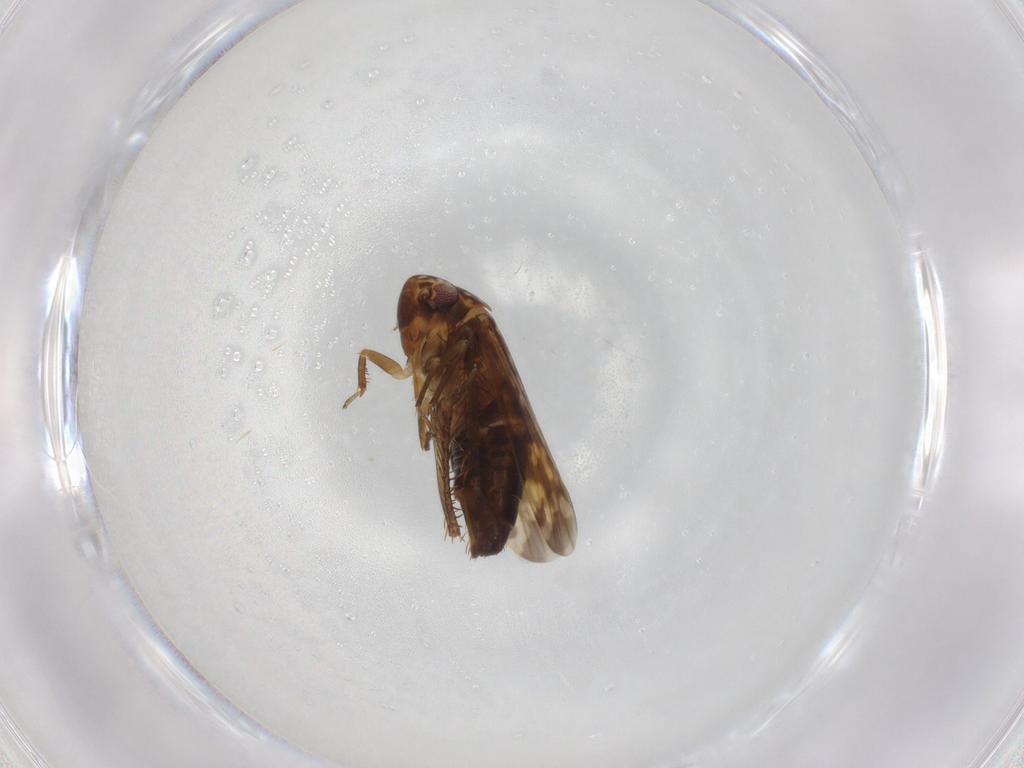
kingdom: Animalia
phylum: Arthropoda
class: Insecta
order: Hemiptera
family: Cicadellidae
